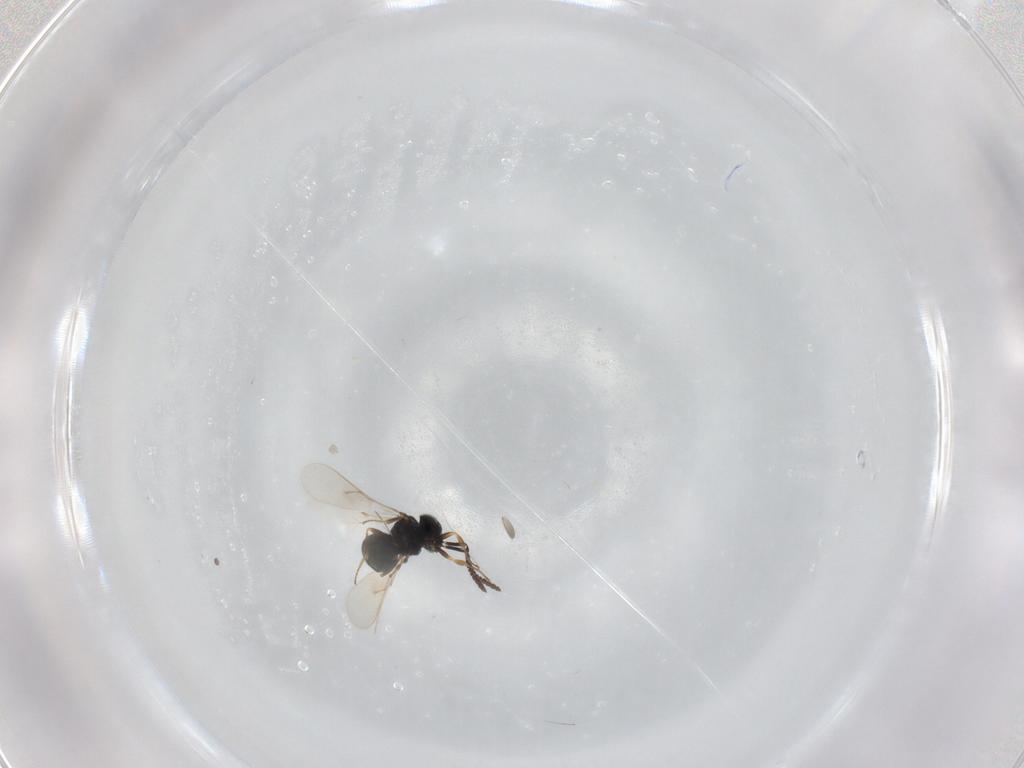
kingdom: Animalia
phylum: Arthropoda
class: Insecta
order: Hymenoptera
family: Scelionidae
